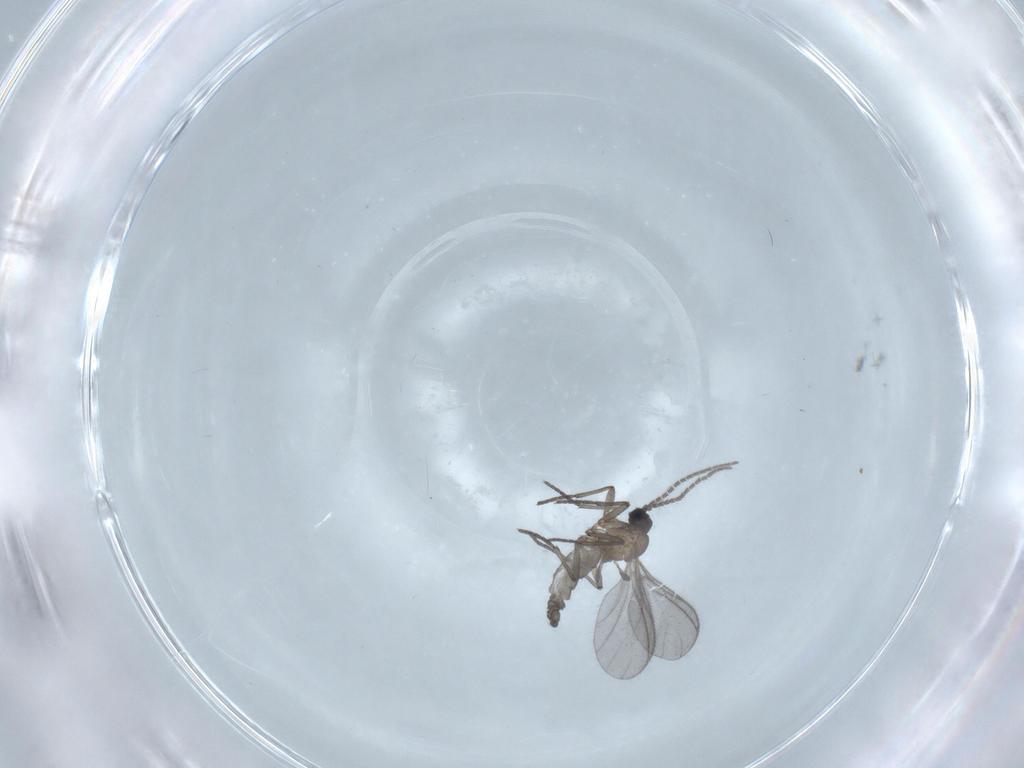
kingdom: Animalia
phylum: Arthropoda
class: Insecta
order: Diptera
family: Sciaridae
